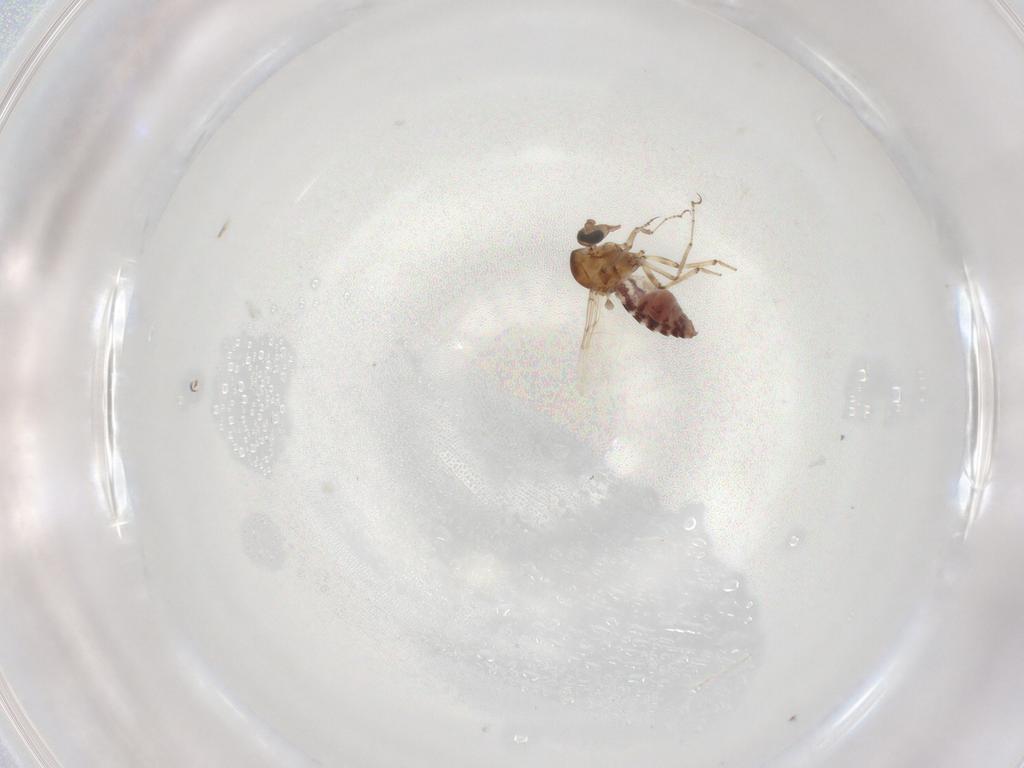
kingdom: Animalia
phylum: Arthropoda
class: Insecta
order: Diptera
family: Ceratopogonidae
